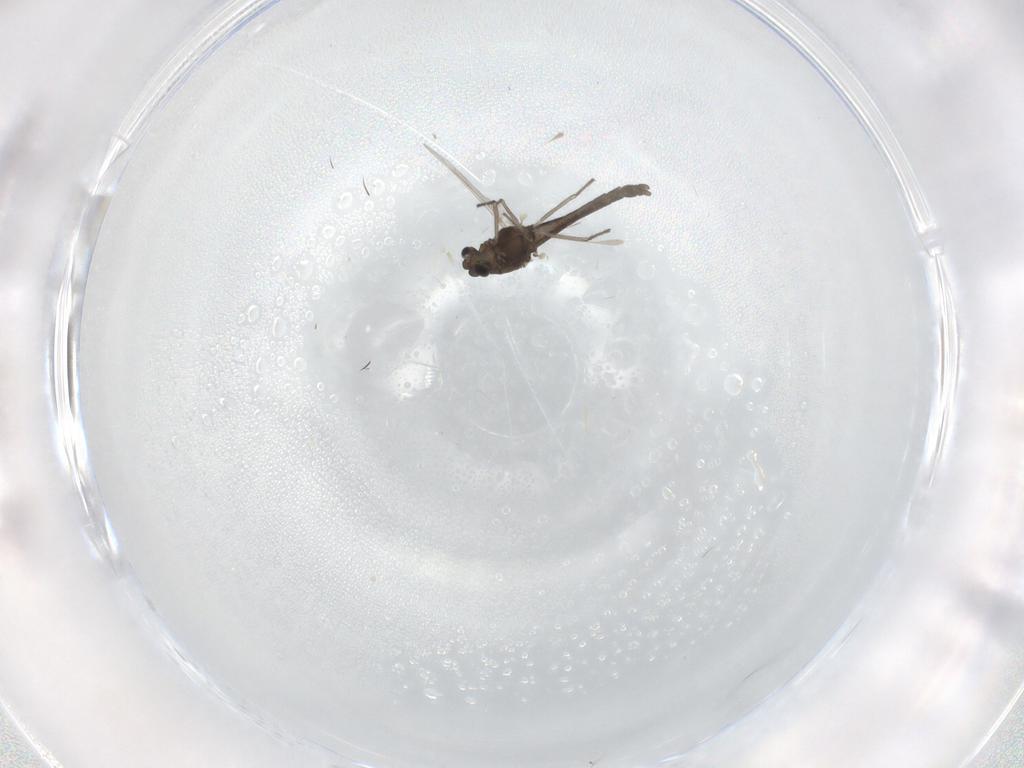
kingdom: Animalia
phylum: Arthropoda
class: Insecta
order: Diptera
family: Chironomidae
